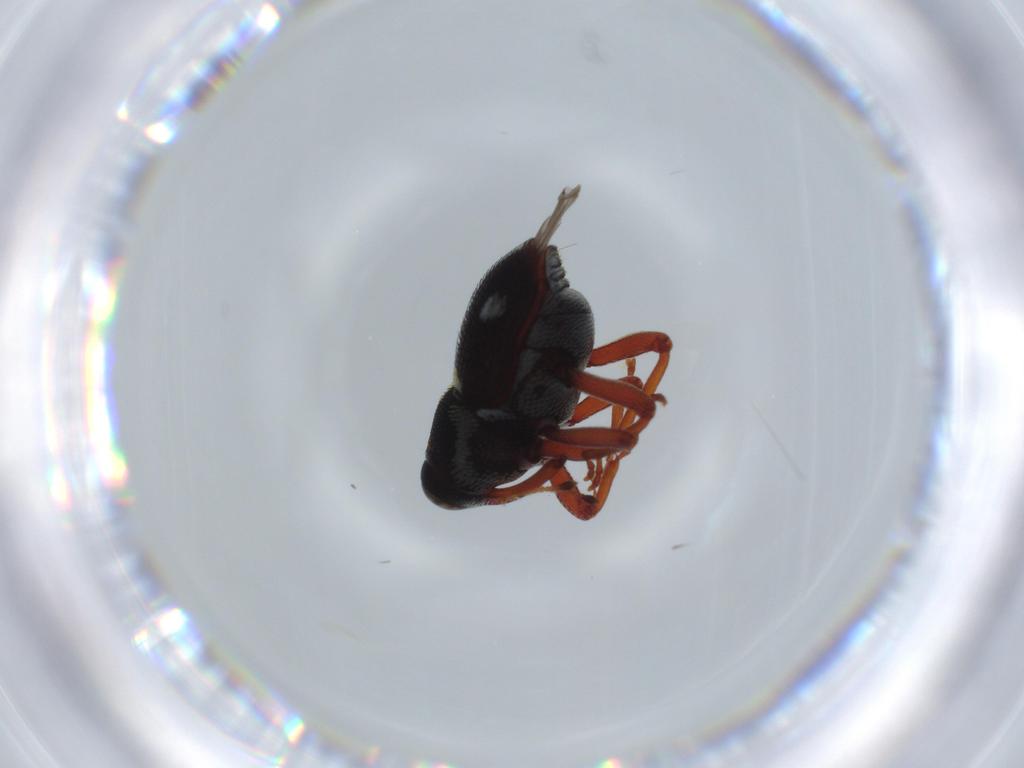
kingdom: Animalia
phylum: Arthropoda
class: Insecta
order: Coleoptera
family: Chrysomelidae
